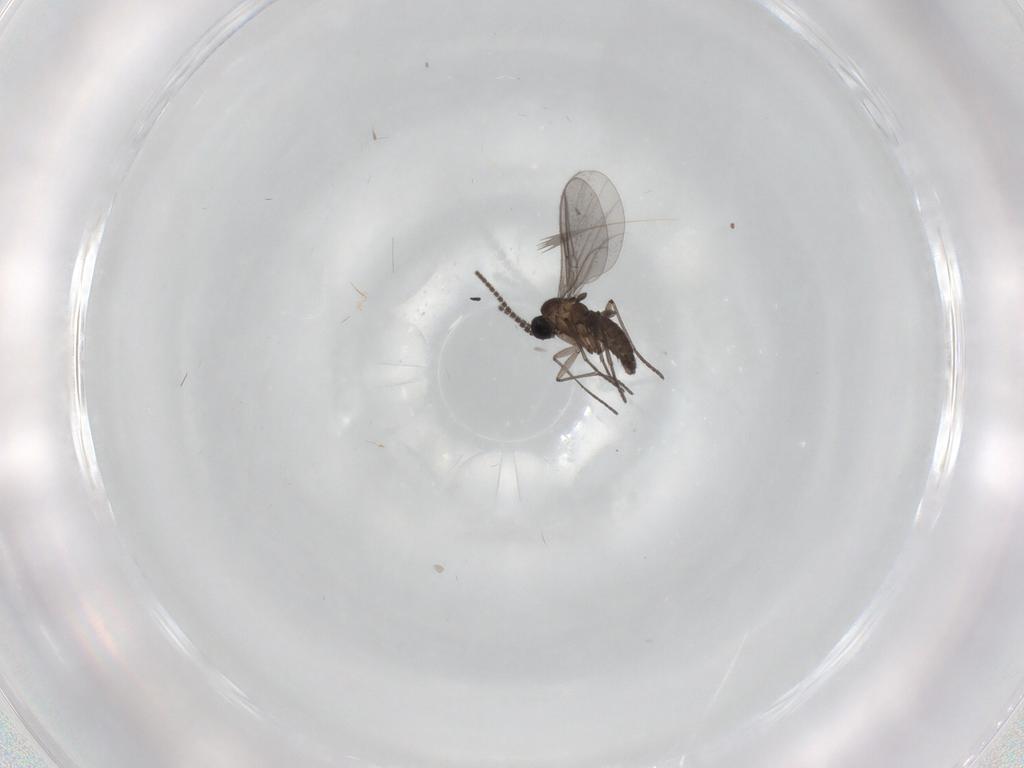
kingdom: Animalia
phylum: Arthropoda
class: Insecta
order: Diptera
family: Sciaridae
